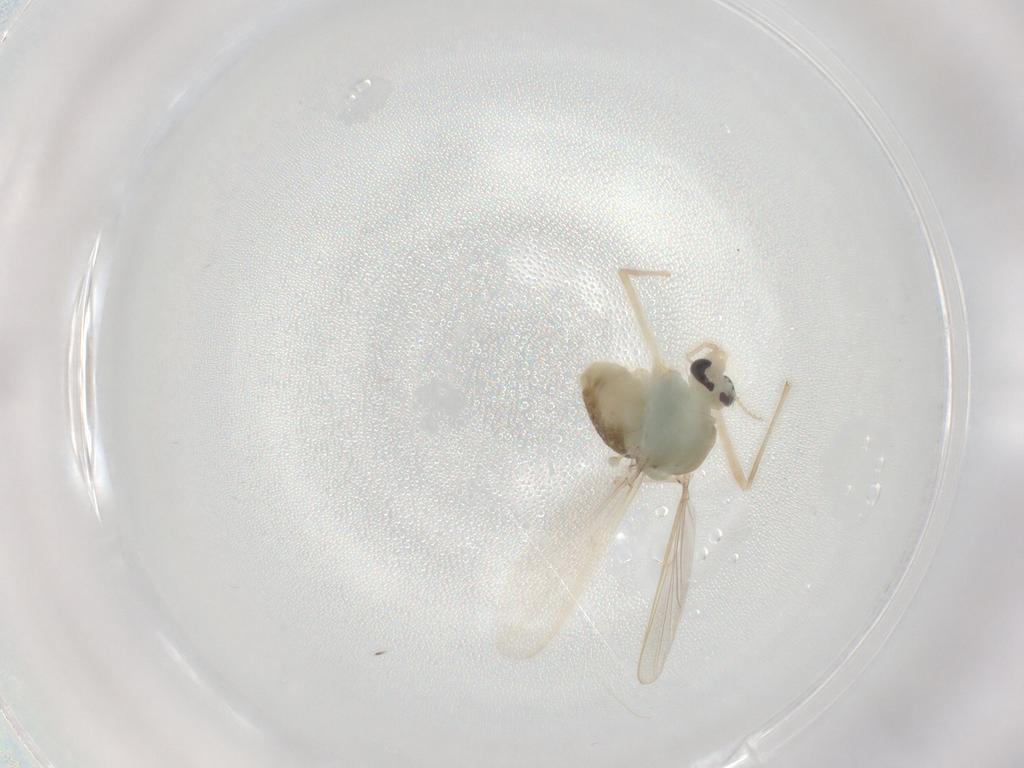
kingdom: Animalia
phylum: Arthropoda
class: Insecta
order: Diptera
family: Chironomidae
